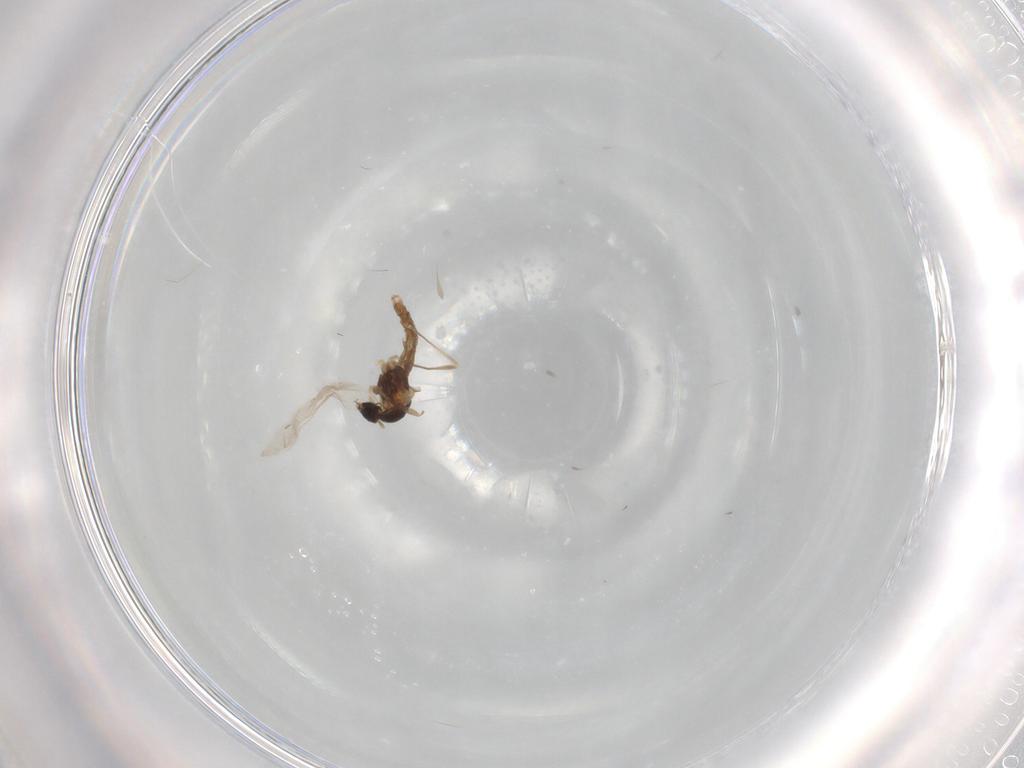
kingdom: Animalia
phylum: Arthropoda
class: Insecta
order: Diptera
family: Cecidomyiidae
